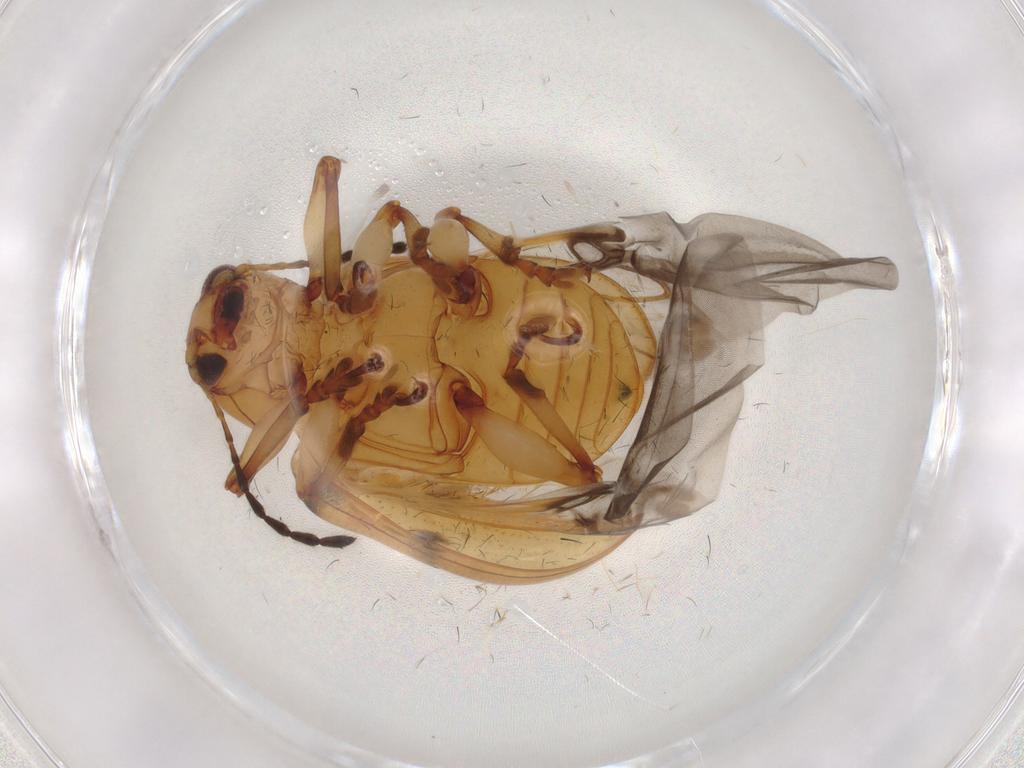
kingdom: Animalia
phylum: Arthropoda
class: Insecta
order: Coleoptera
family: Chrysomelidae
